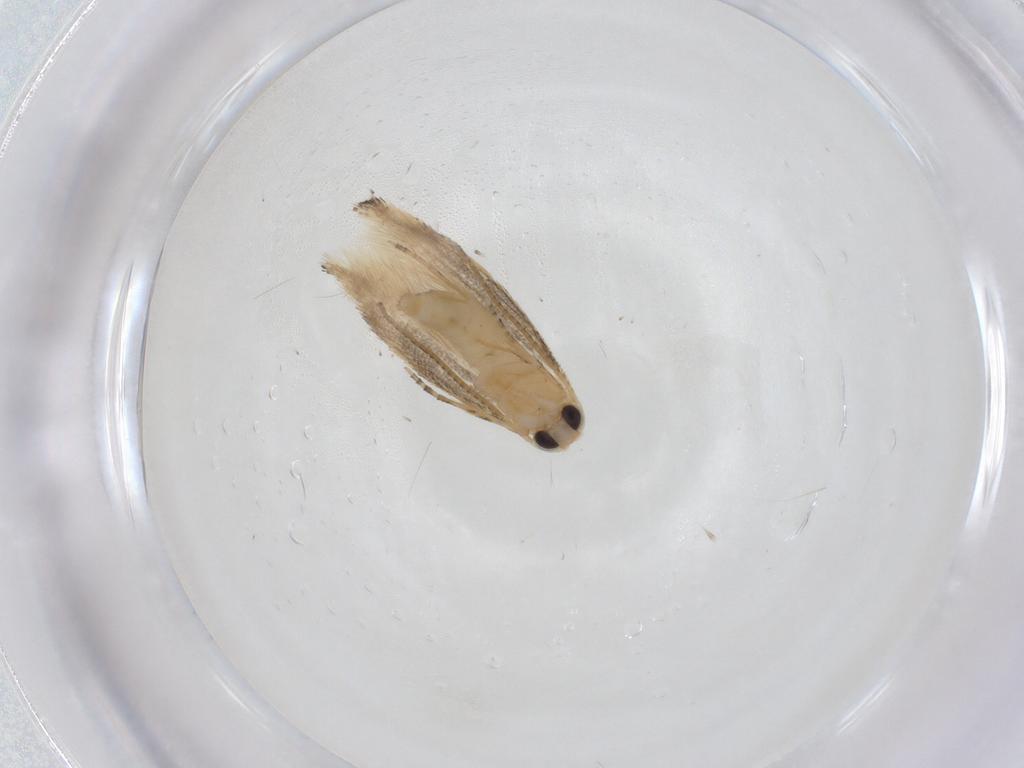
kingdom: Animalia
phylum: Arthropoda
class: Insecta
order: Lepidoptera
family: Bucculatricidae
